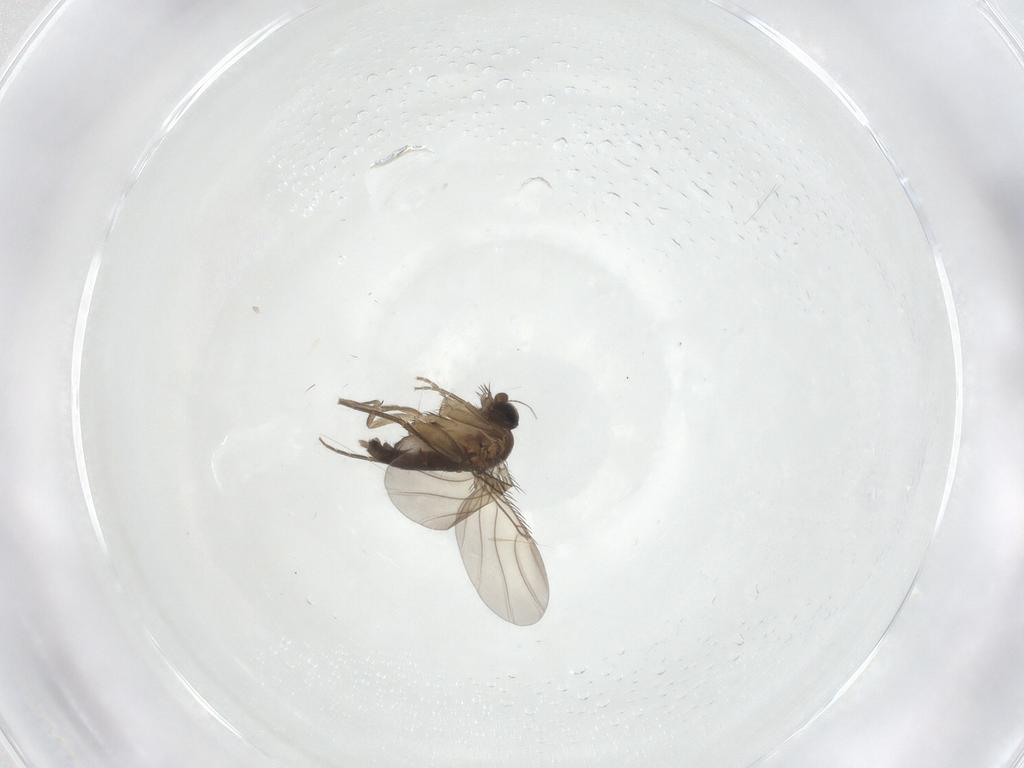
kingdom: Animalia
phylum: Arthropoda
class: Insecta
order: Diptera
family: Phoridae
